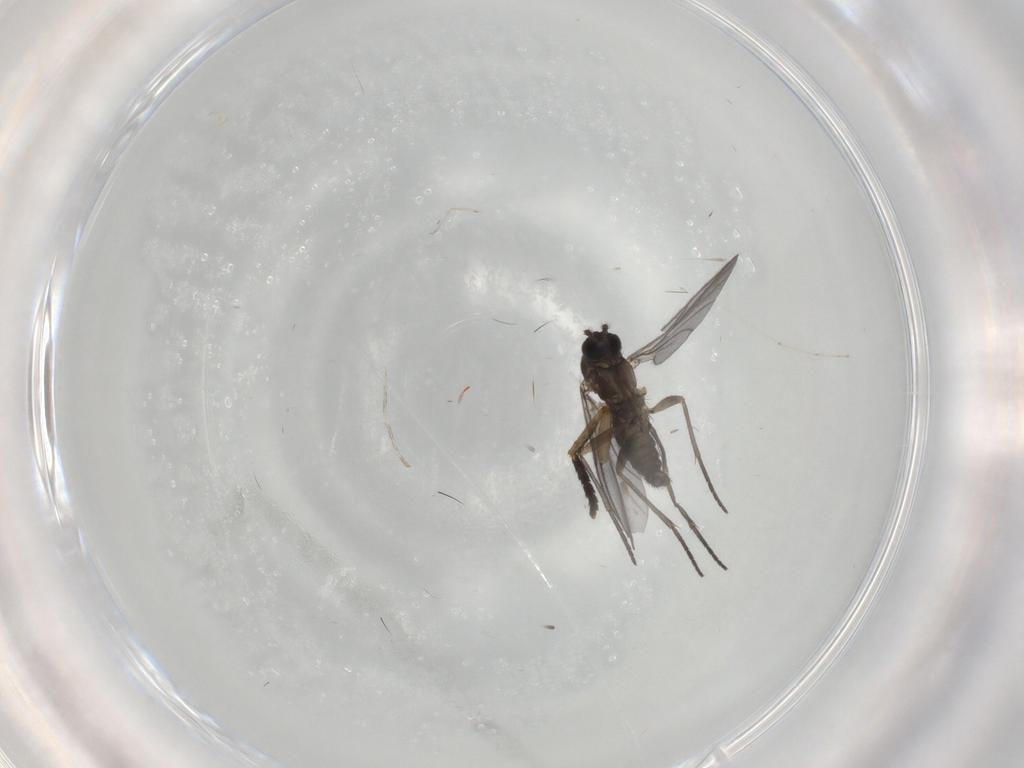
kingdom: Animalia
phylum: Arthropoda
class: Insecta
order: Diptera
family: Sciaridae
